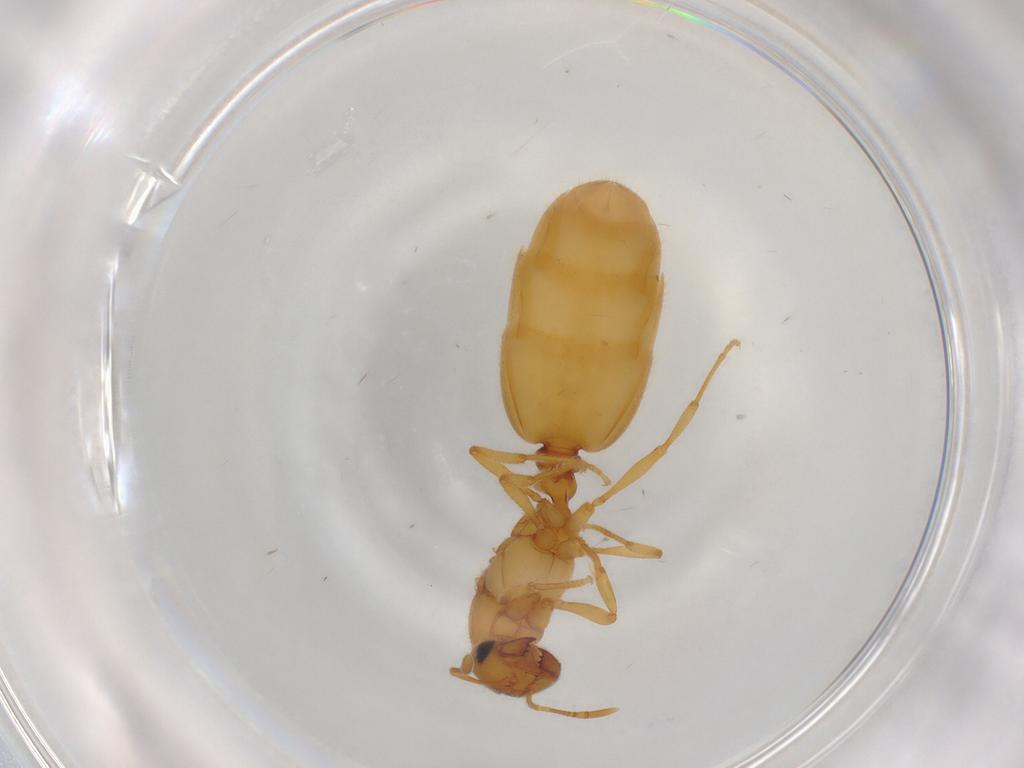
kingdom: Animalia
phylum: Arthropoda
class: Insecta
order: Hymenoptera
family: Formicidae
